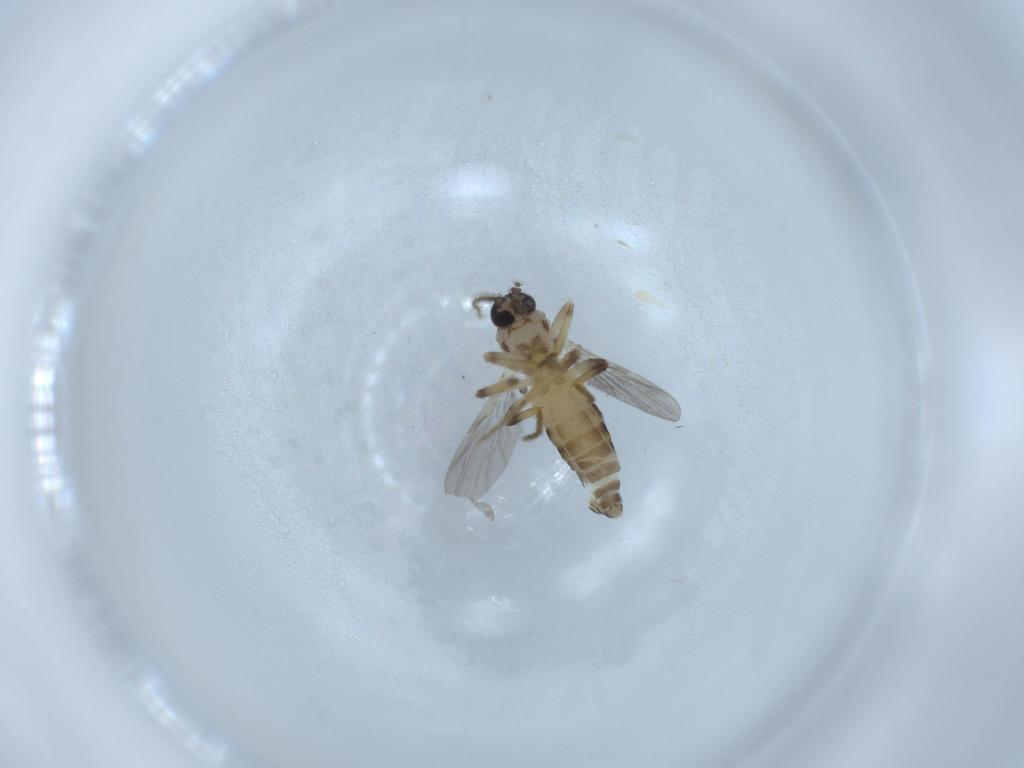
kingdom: Animalia
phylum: Arthropoda
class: Insecta
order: Diptera
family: Ceratopogonidae
